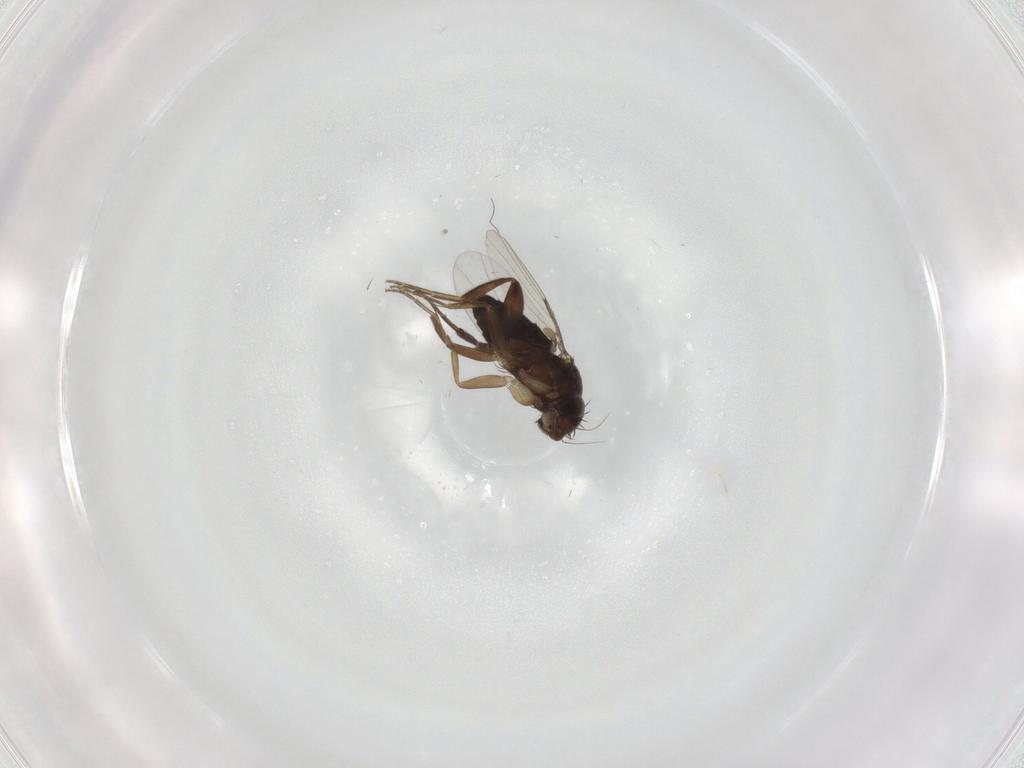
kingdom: Animalia
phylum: Arthropoda
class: Insecta
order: Diptera
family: Phoridae
